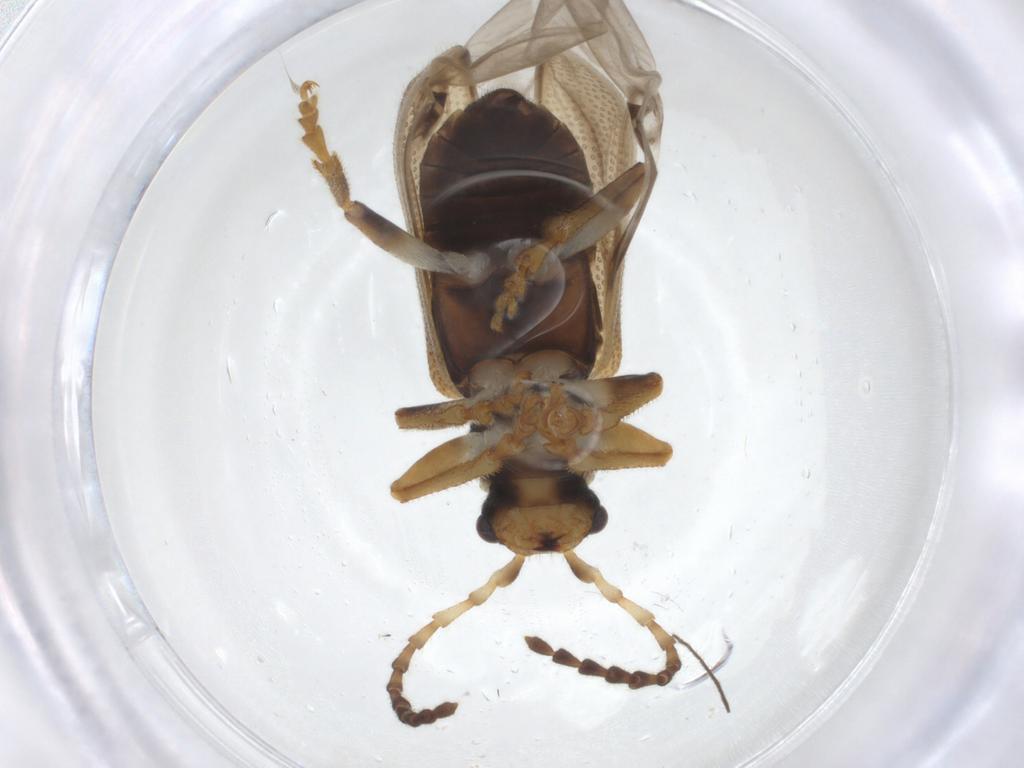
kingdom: Animalia
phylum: Arthropoda
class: Insecta
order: Coleoptera
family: Chrysomelidae
